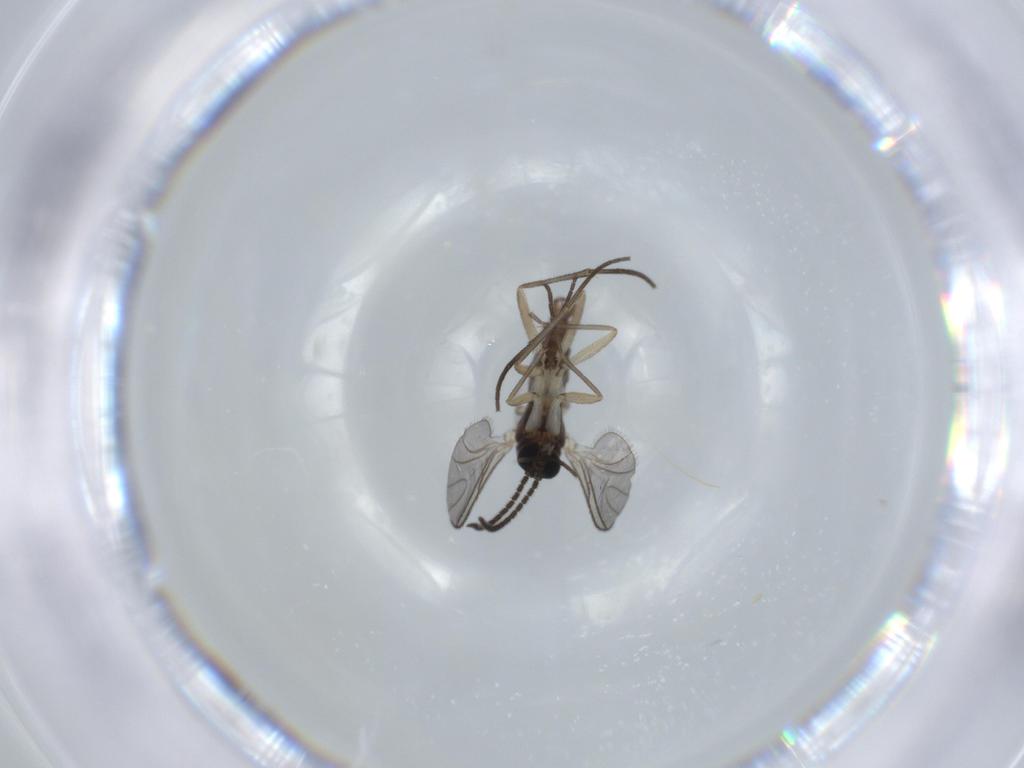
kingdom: Animalia
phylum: Arthropoda
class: Insecta
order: Diptera
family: Sciaridae
